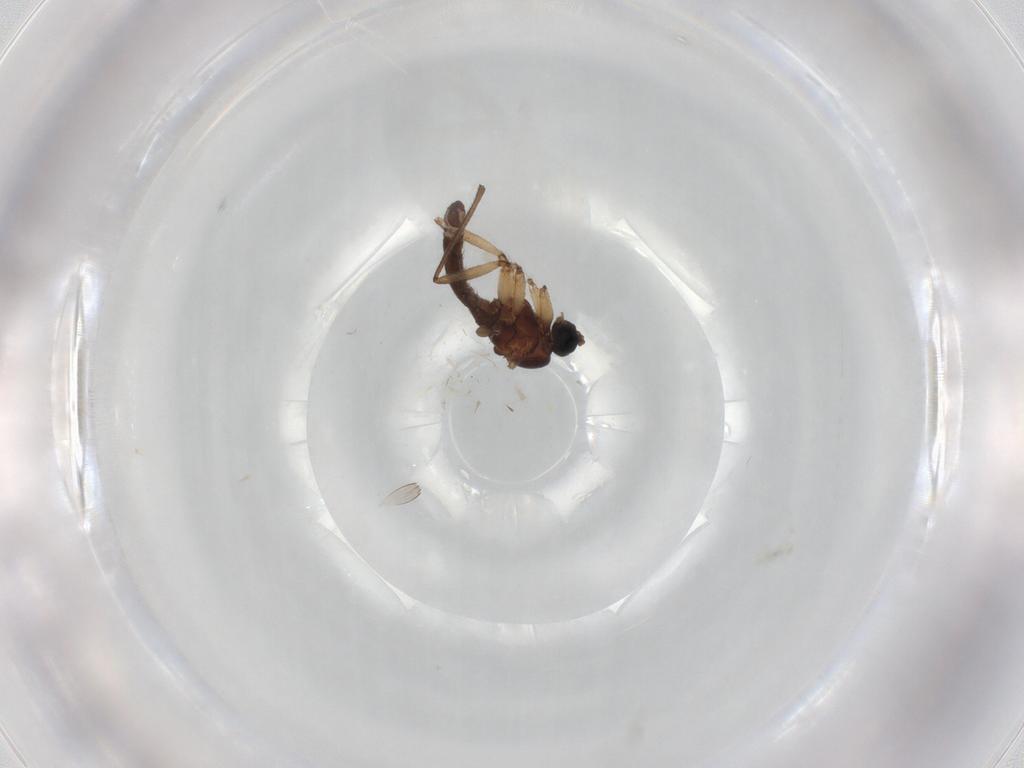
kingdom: Animalia
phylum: Arthropoda
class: Insecta
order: Diptera
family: Sciaridae
